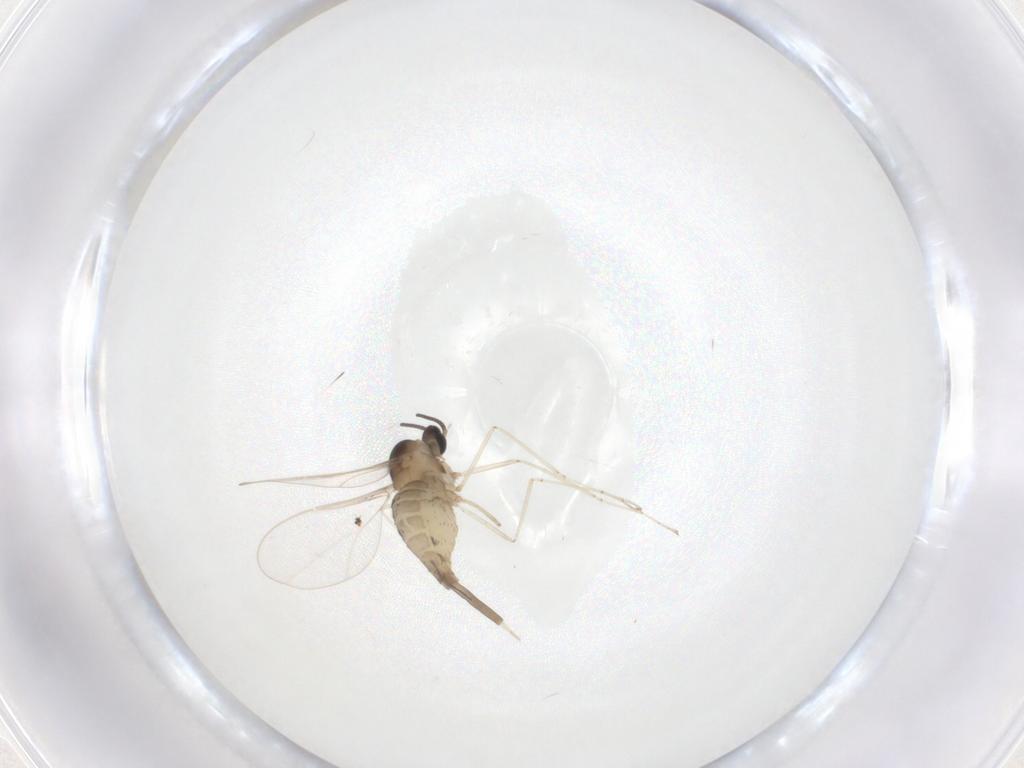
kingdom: Animalia
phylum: Arthropoda
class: Insecta
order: Diptera
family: Cecidomyiidae
